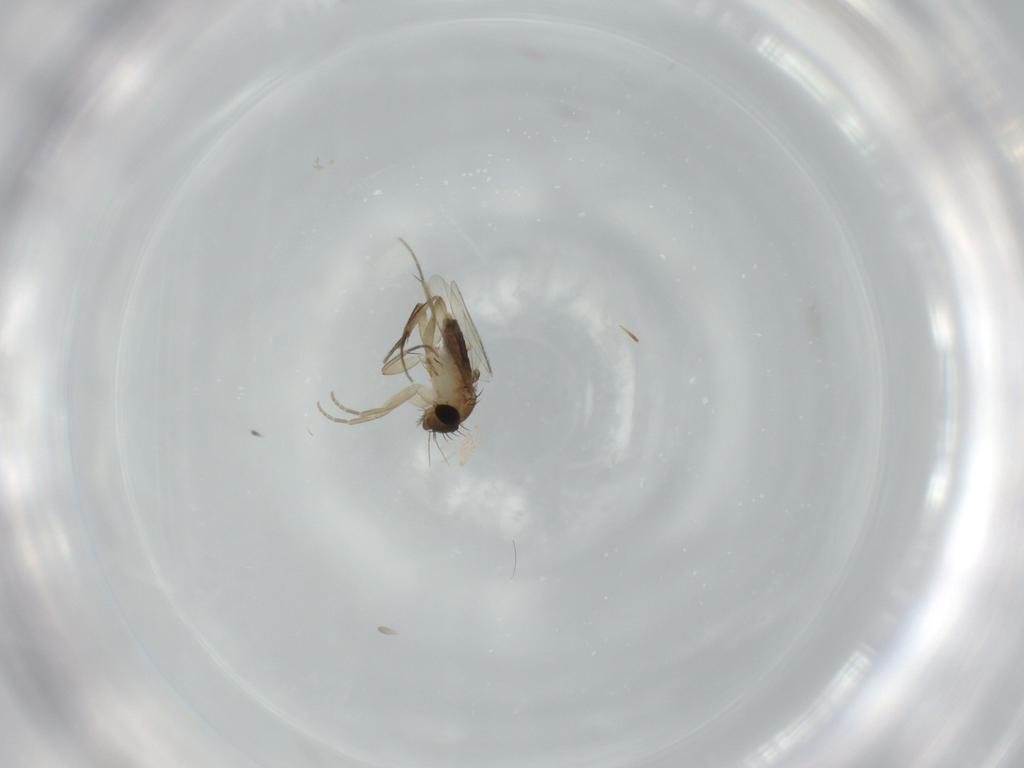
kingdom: Animalia
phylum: Arthropoda
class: Insecta
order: Diptera
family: Phoridae
